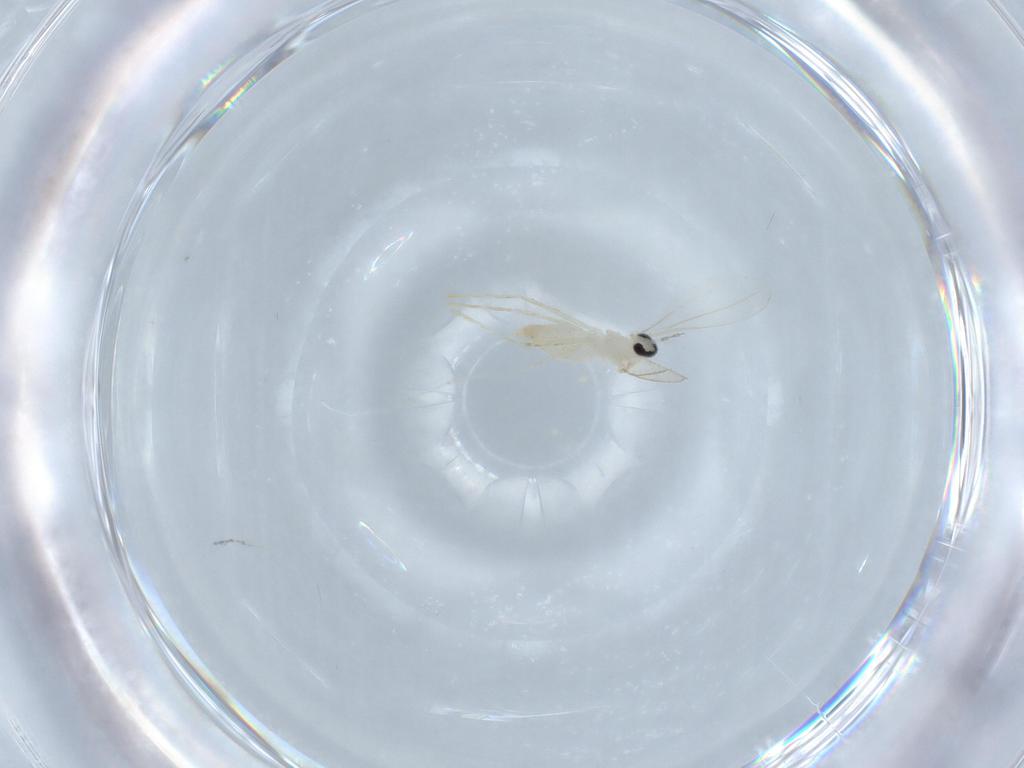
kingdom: Animalia
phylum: Arthropoda
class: Insecta
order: Diptera
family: Cecidomyiidae
